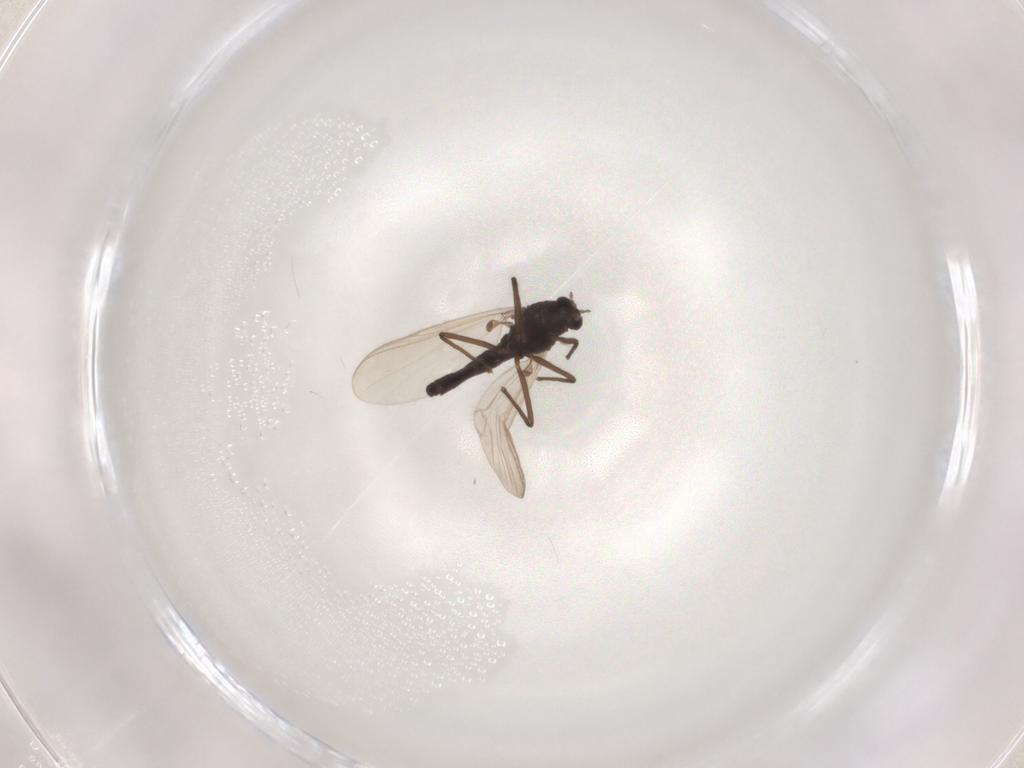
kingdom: Animalia
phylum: Arthropoda
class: Insecta
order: Diptera
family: Chironomidae
